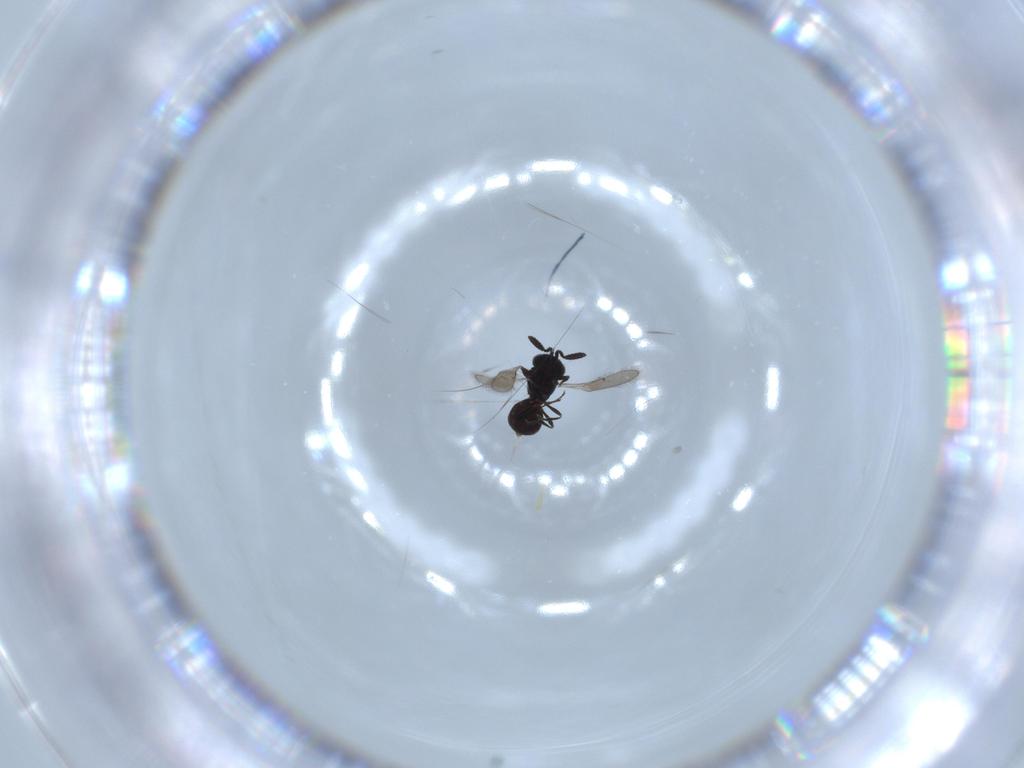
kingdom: Animalia
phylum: Arthropoda
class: Insecta
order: Hymenoptera
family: Scelionidae
